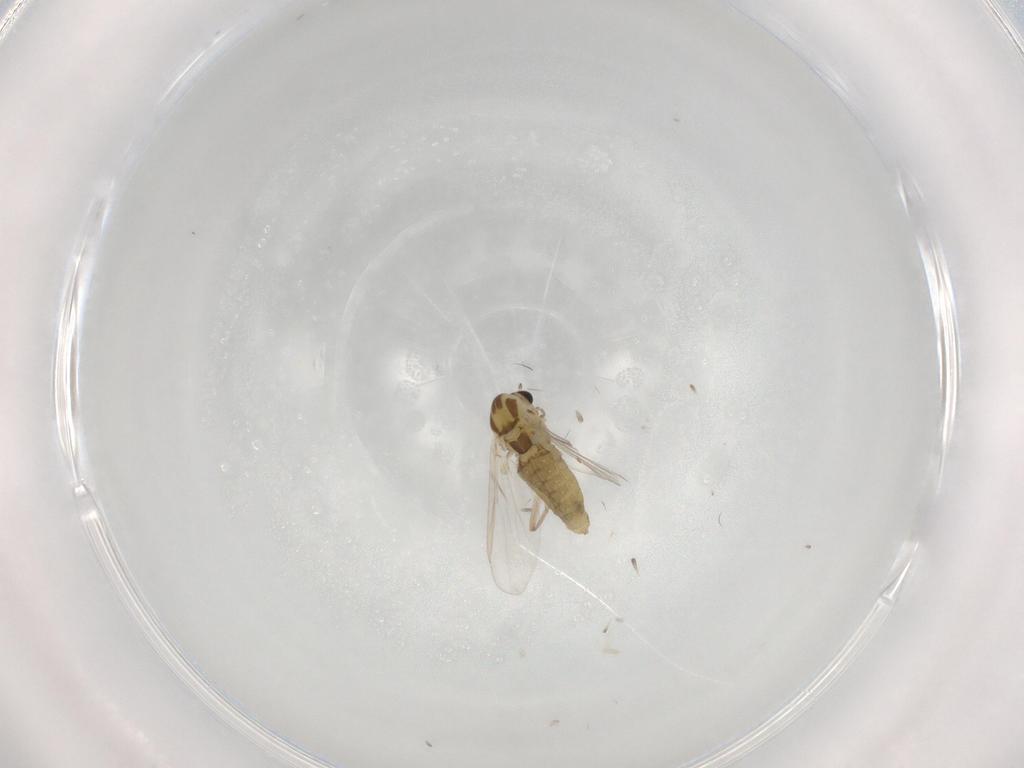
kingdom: Animalia
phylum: Arthropoda
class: Insecta
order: Diptera
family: Chironomidae
